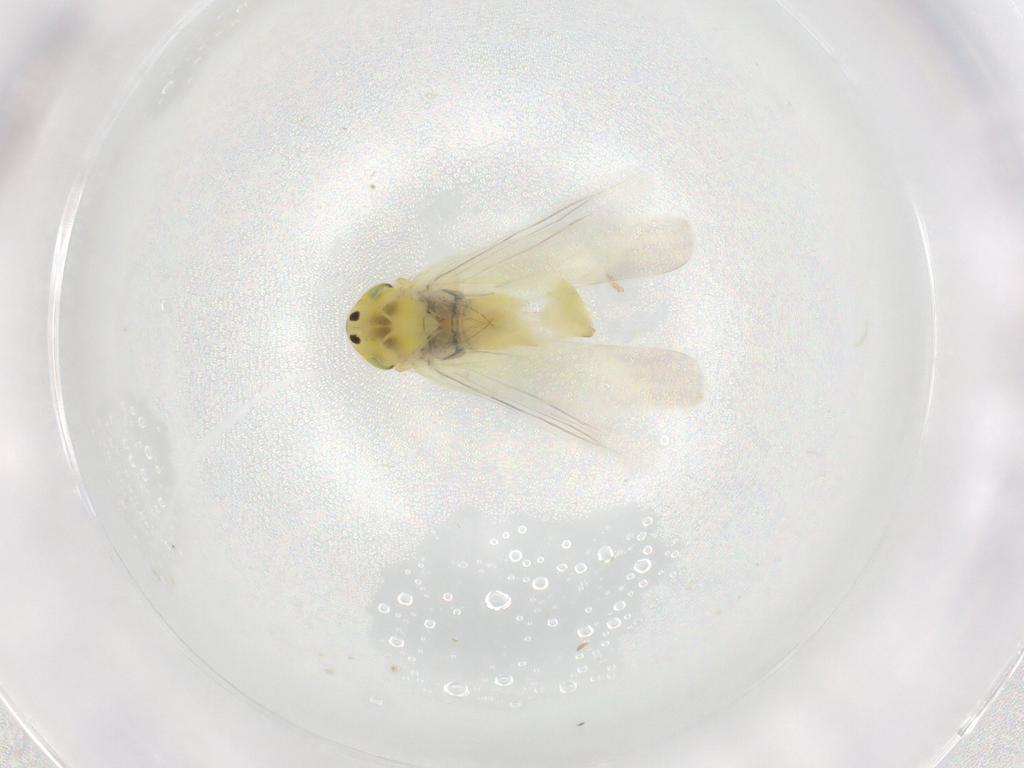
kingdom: Animalia
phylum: Arthropoda
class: Insecta
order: Hemiptera
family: Cicadellidae
